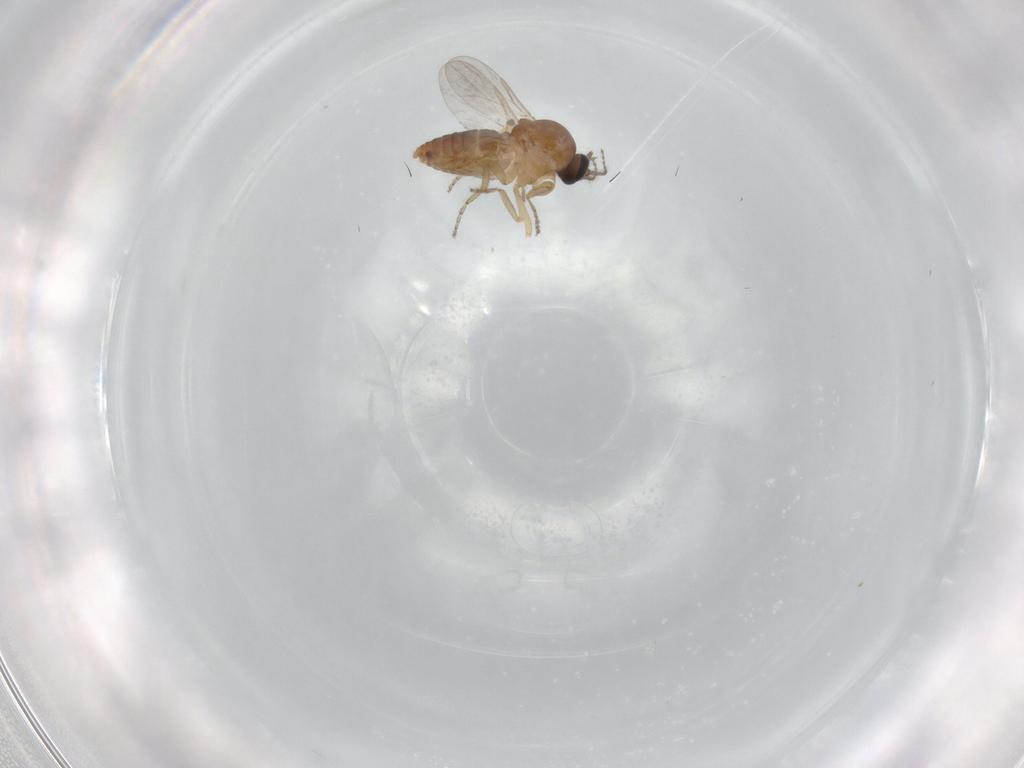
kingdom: Animalia
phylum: Arthropoda
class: Insecta
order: Diptera
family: Ceratopogonidae
